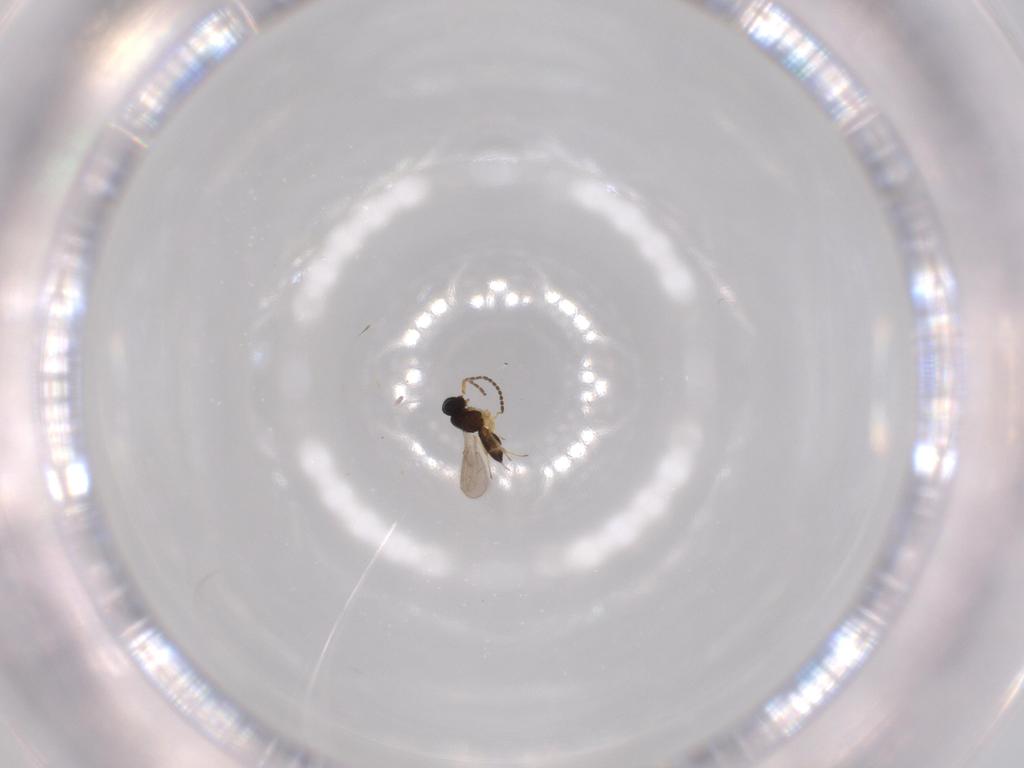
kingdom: Animalia
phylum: Arthropoda
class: Insecta
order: Hymenoptera
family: Scelionidae
